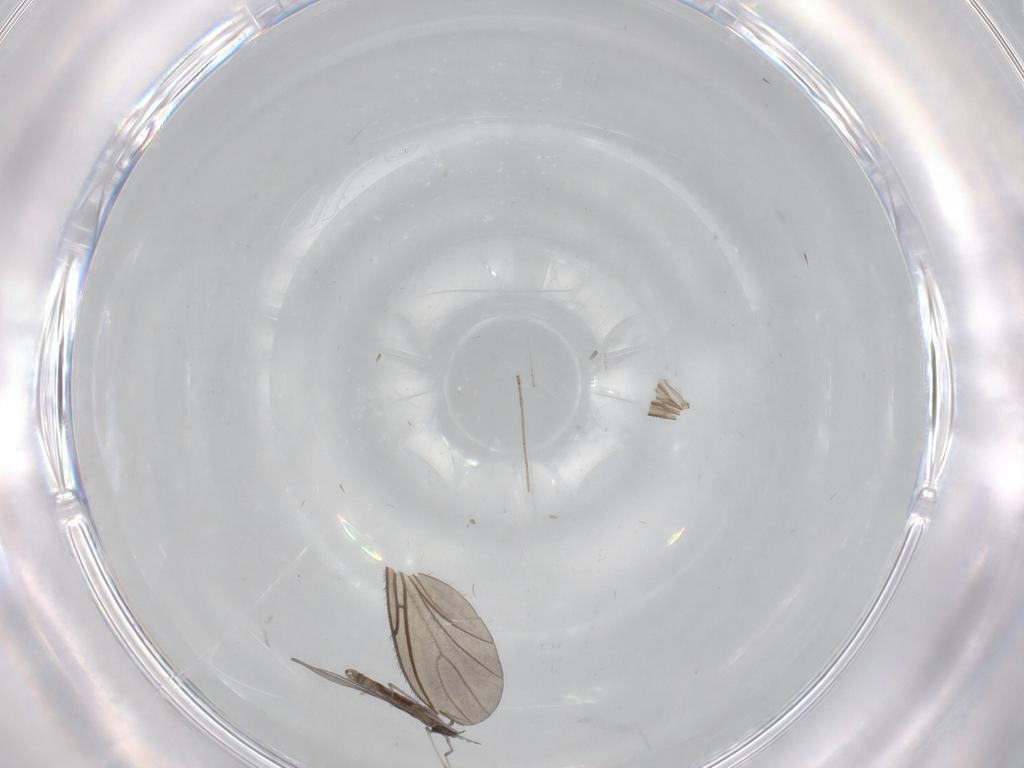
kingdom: Animalia
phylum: Arthropoda
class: Insecta
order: Diptera
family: Cecidomyiidae
